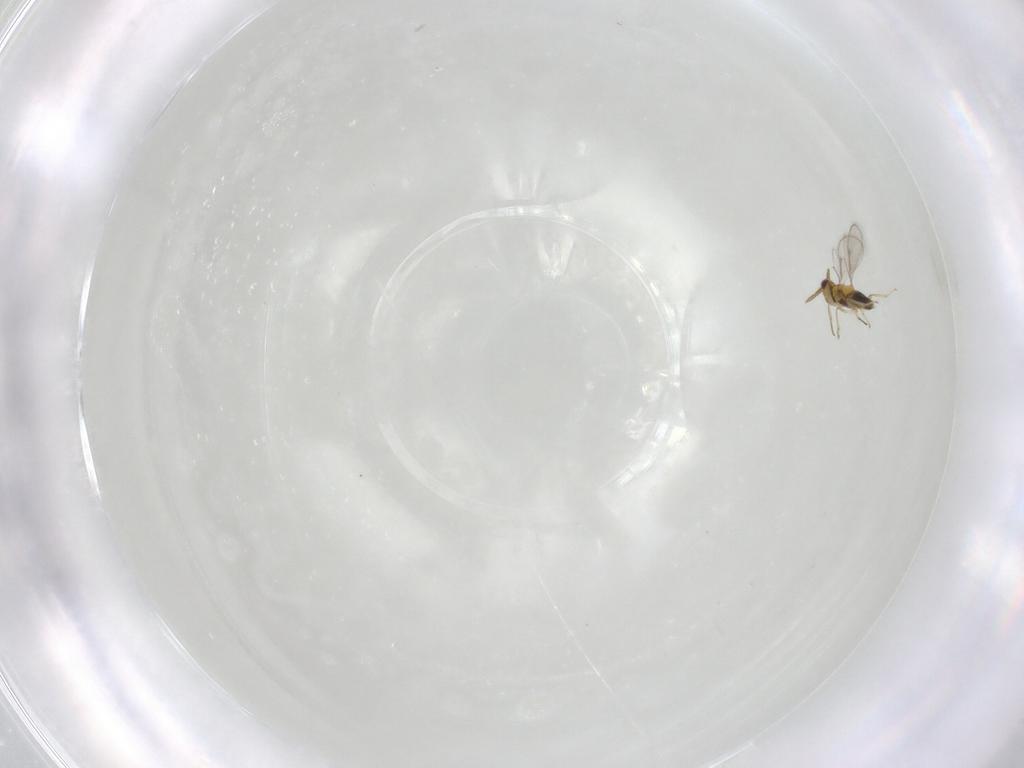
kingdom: Animalia
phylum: Arthropoda
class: Insecta
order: Hymenoptera
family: Aphelinidae
